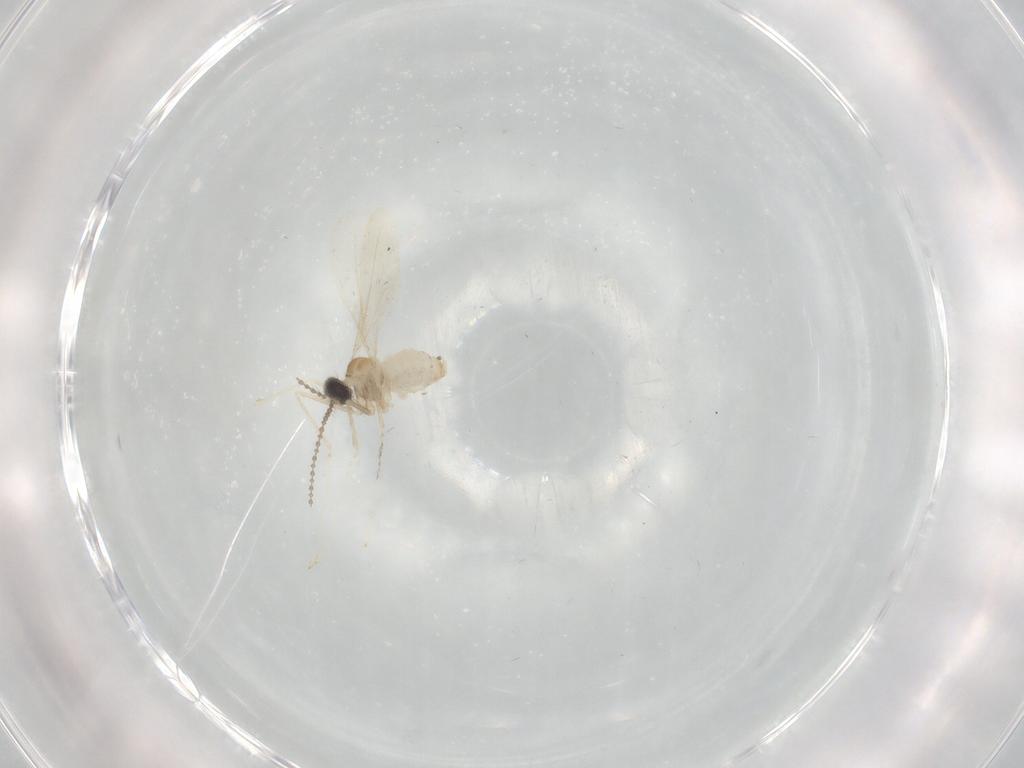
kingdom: Animalia
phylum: Arthropoda
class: Insecta
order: Diptera
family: Cecidomyiidae
